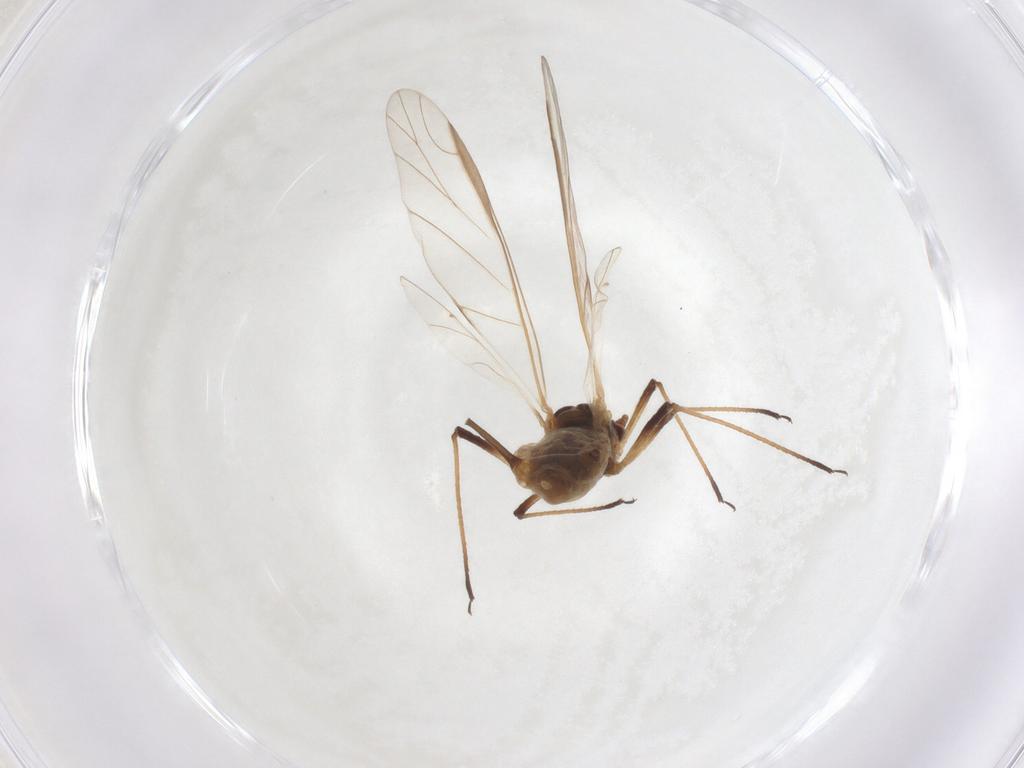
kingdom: Animalia
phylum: Arthropoda
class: Insecta
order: Hemiptera
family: Aphididae
